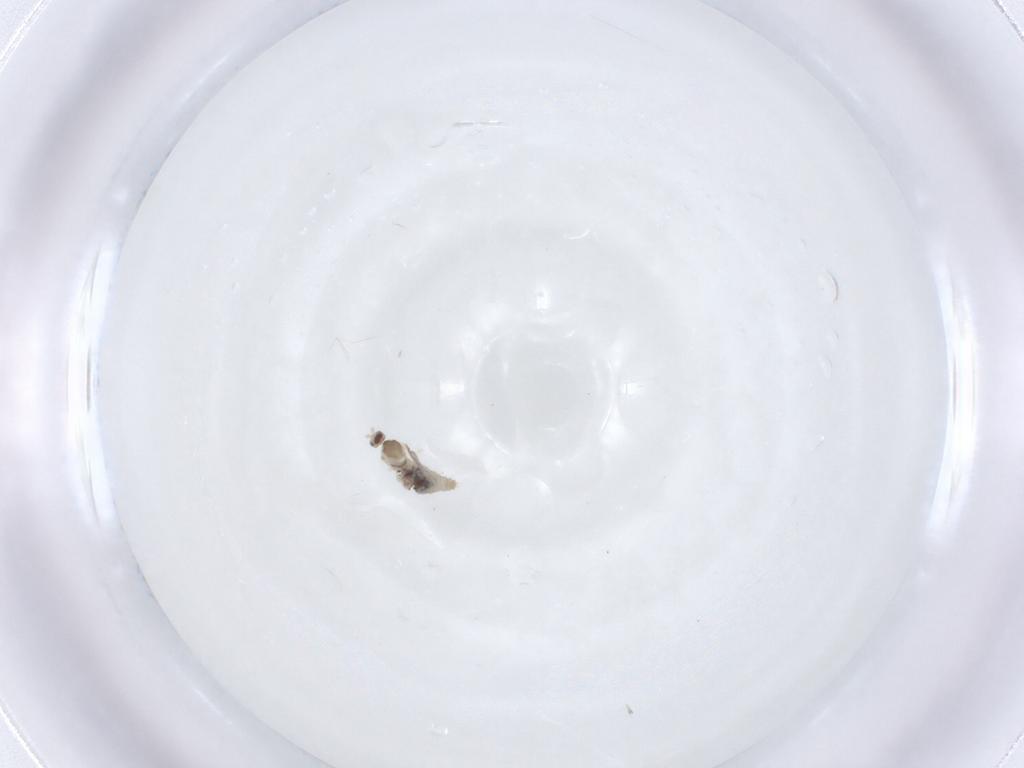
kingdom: Animalia
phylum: Arthropoda
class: Insecta
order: Diptera
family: Cecidomyiidae
